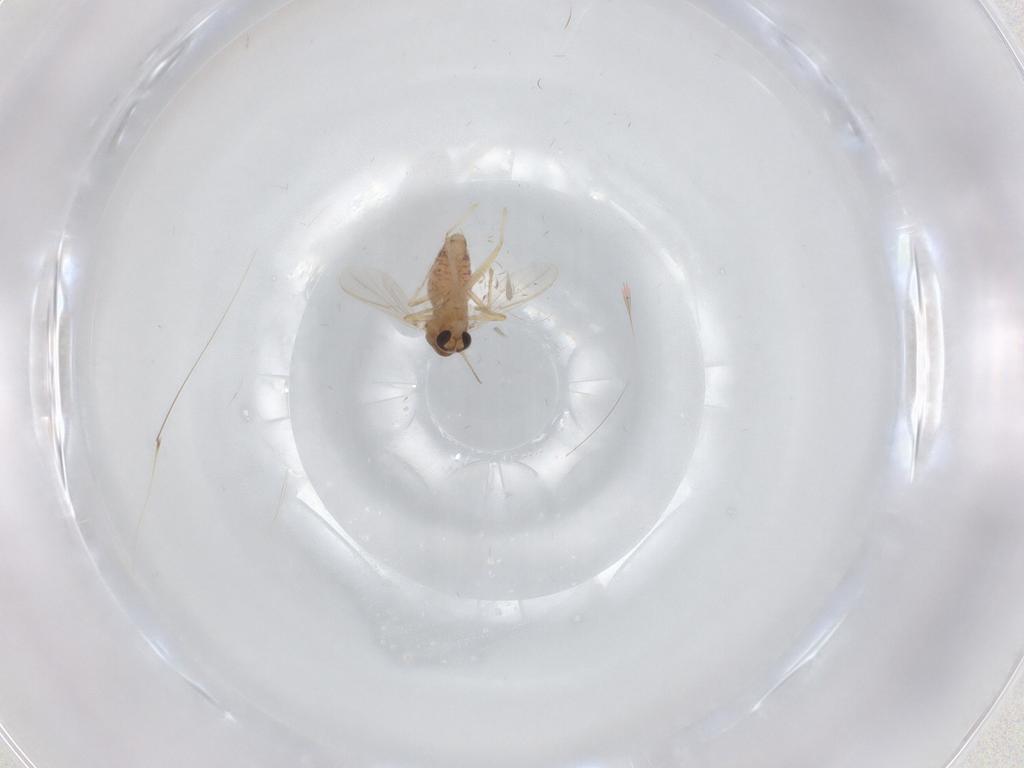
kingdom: Animalia
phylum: Arthropoda
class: Insecta
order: Diptera
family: Chironomidae
